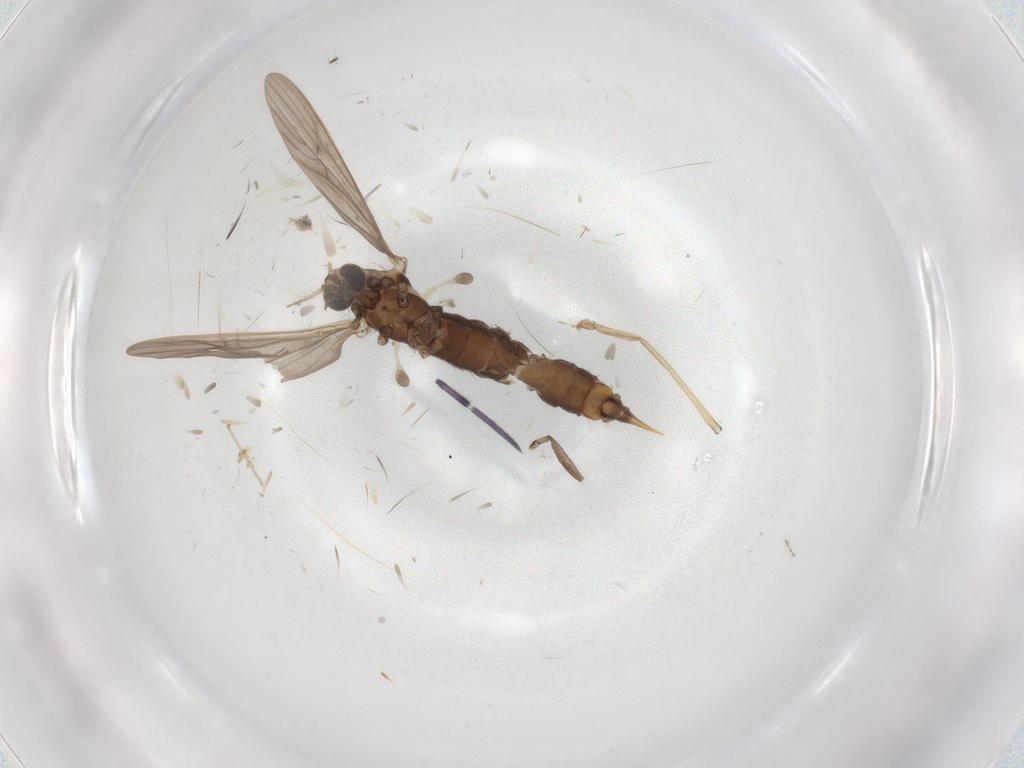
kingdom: Animalia
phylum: Arthropoda
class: Insecta
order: Diptera
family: Limoniidae
